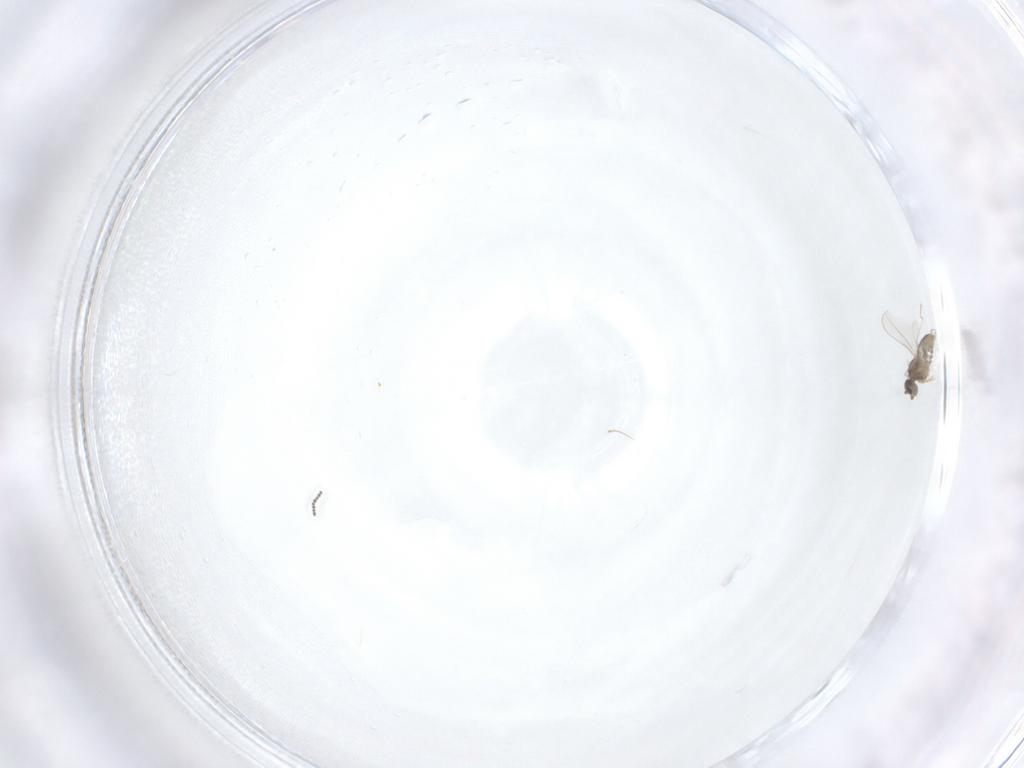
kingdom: Animalia
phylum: Arthropoda
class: Insecta
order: Diptera
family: Cecidomyiidae
